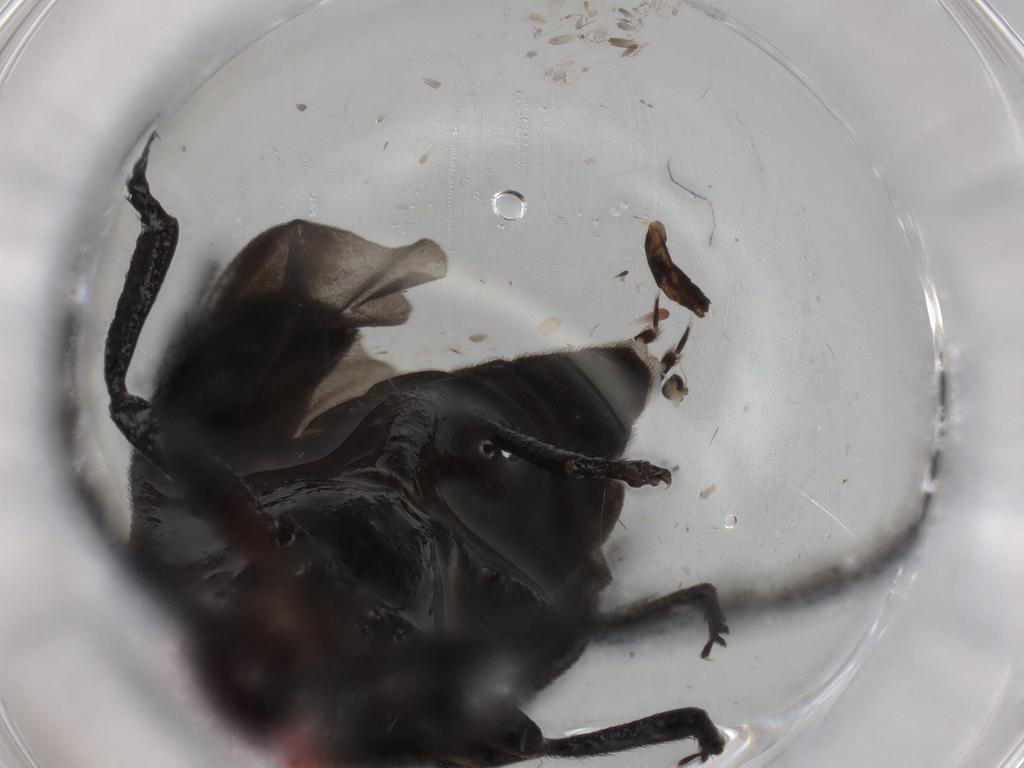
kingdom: Animalia
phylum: Arthropoda
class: Insecta
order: Coleoptera
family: Lycidae
